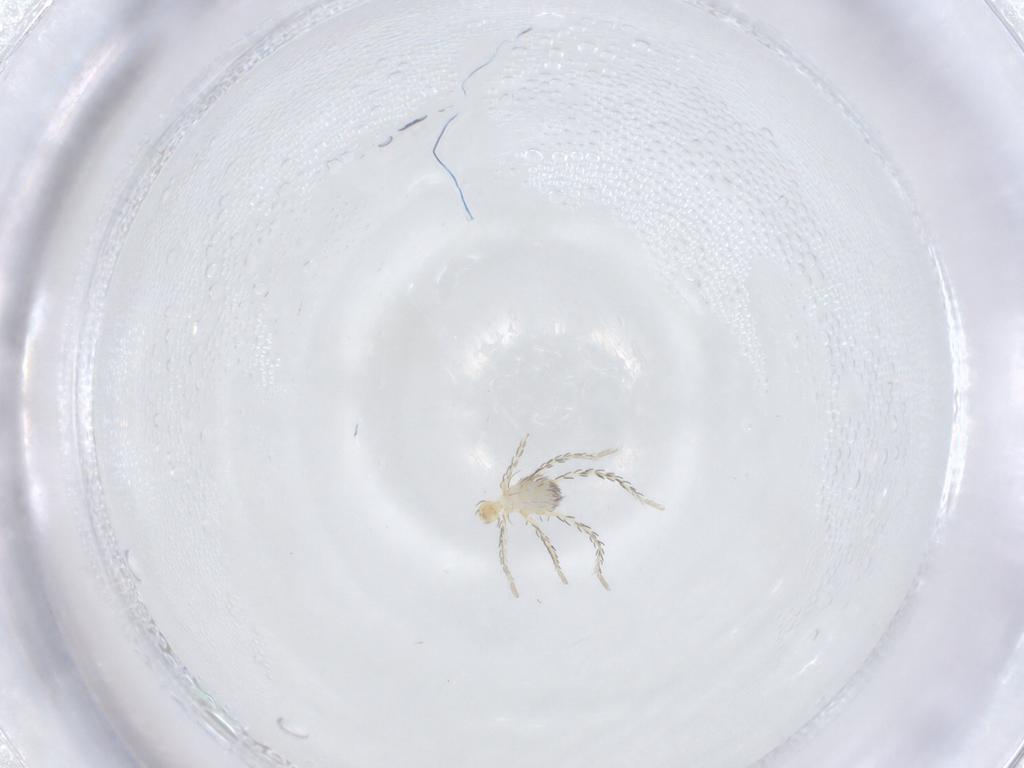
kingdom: Animalia
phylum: Arthropoda
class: Arachnida
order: Trombidiformes
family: Erythraeidae
